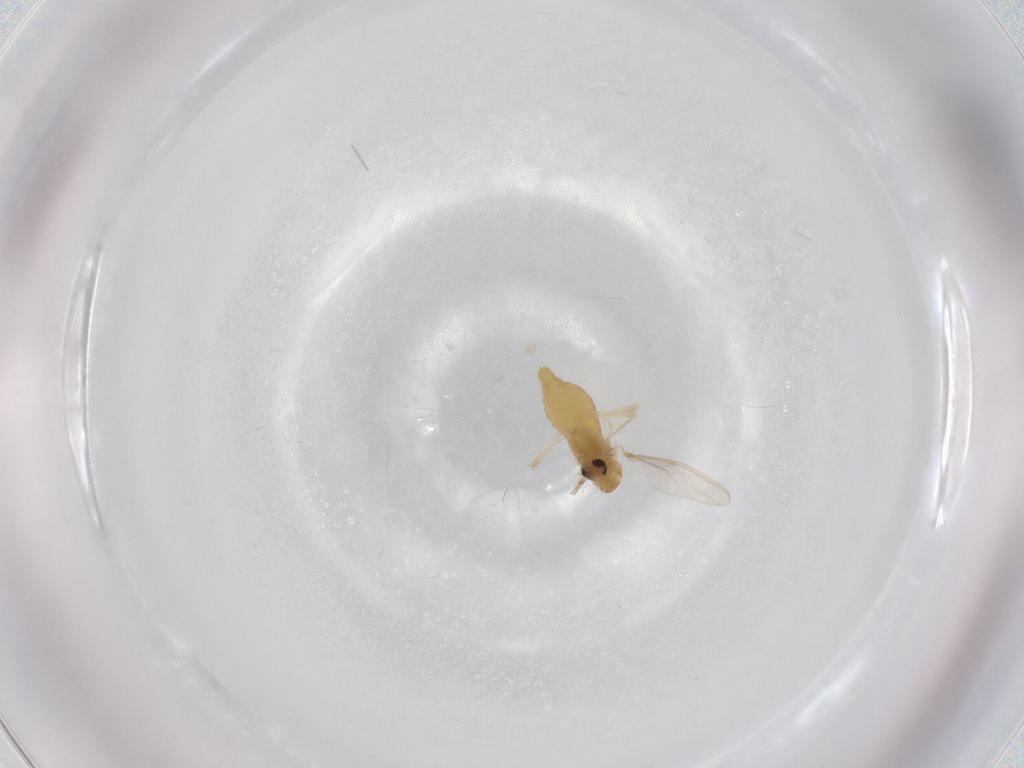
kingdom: Animalia
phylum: Arthropoda
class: Insecta
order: Diptera
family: Chironomidae
